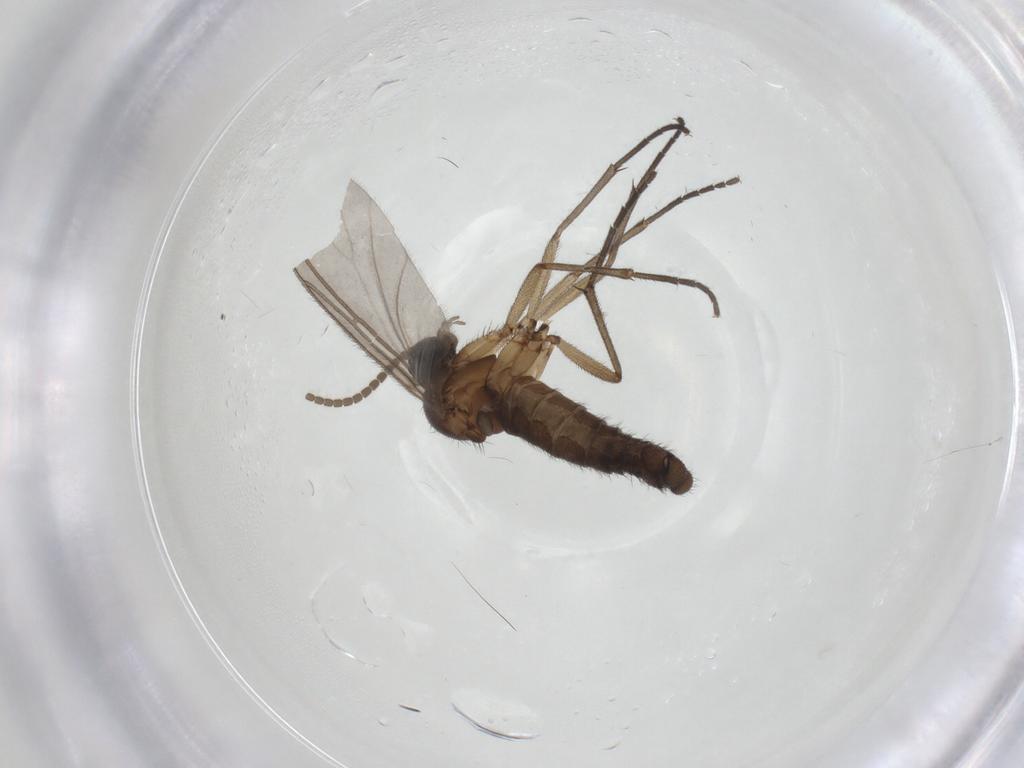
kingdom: Animalia
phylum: Arthropoda
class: Insecta
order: Diptera
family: Sciaridae
